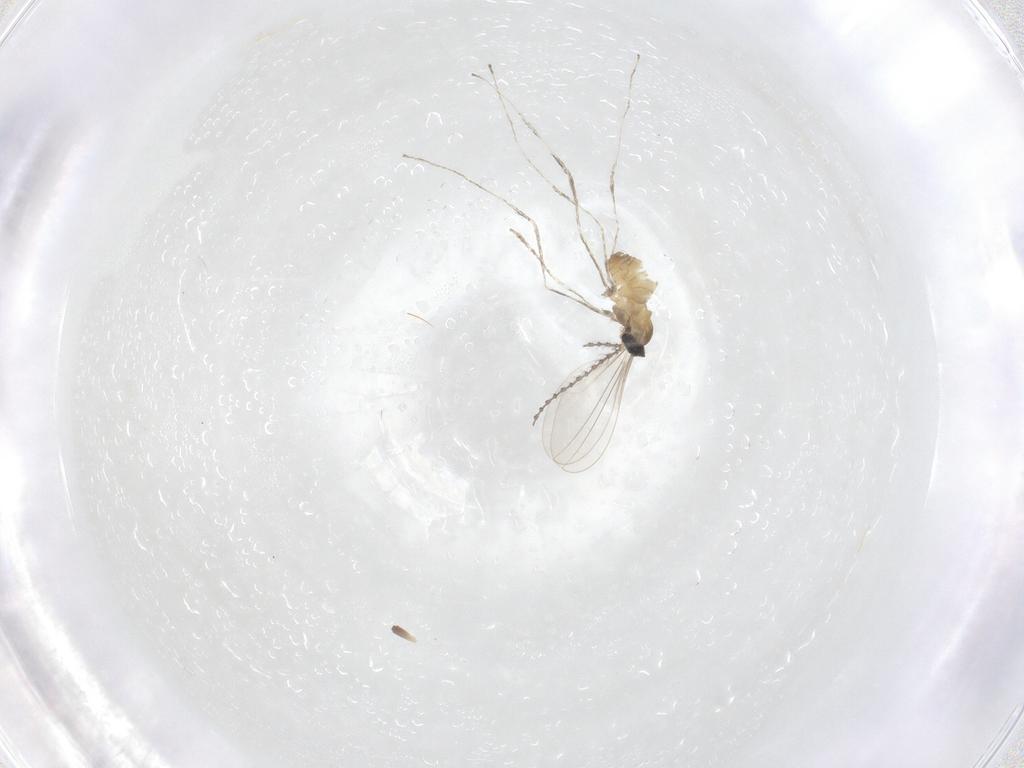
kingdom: Animalia
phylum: Arthropoda
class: Insecta
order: Diptera
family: Cecidomyiidae
